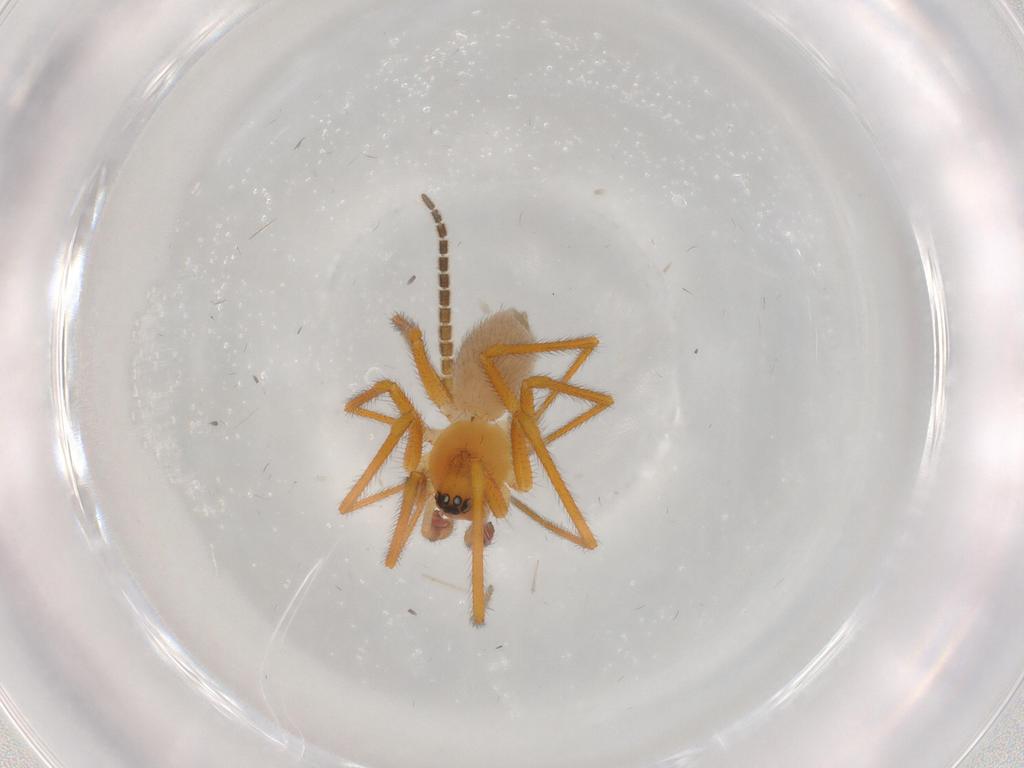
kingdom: Animalia
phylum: Arthropoda
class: Arachnida
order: Araneae
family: Linyphiidae
